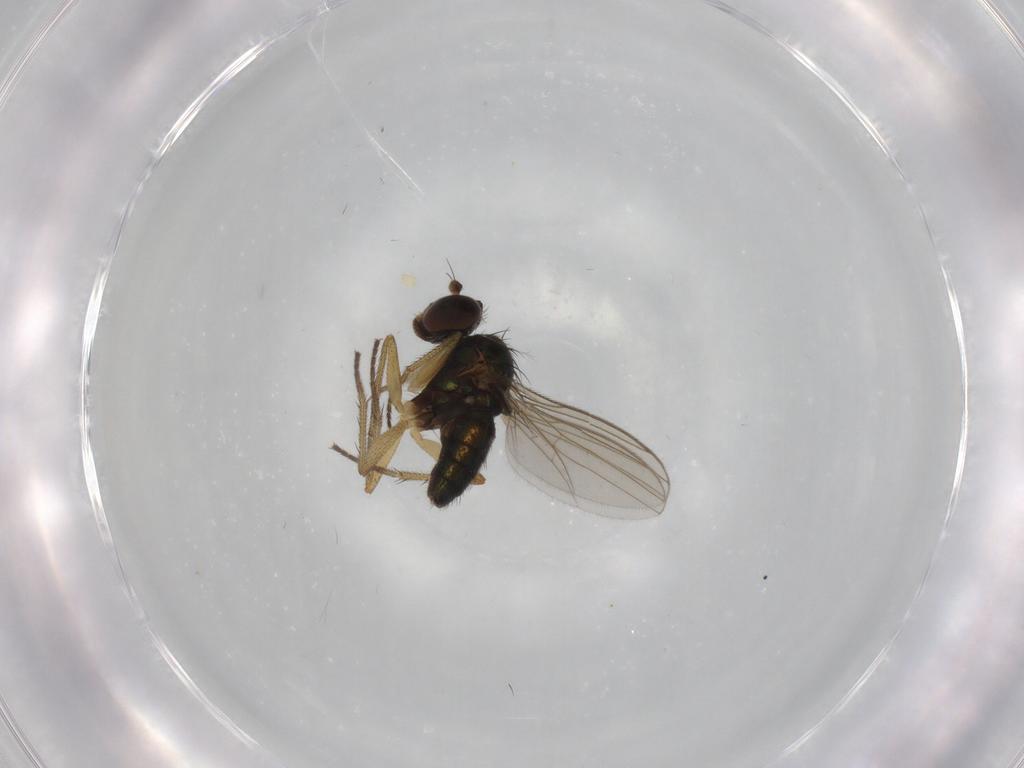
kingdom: Animalia
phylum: Arthropoda
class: Insecta
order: Diptera
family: Dolichopodidae
